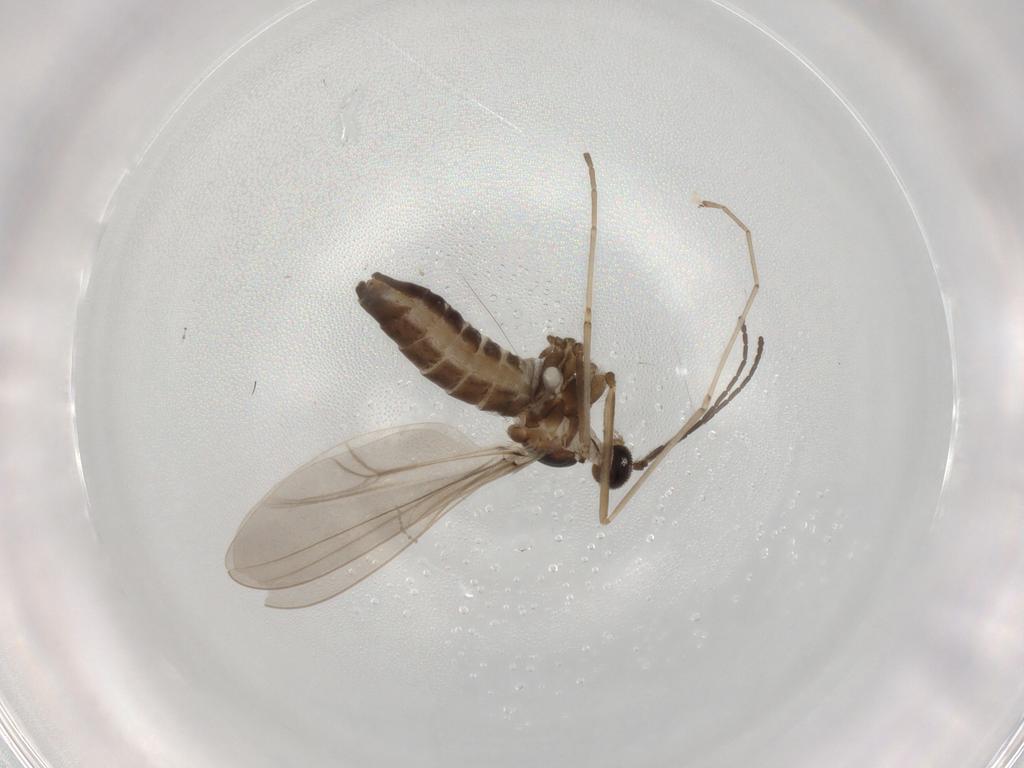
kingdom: Animalia
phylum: Arthropoda
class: Insecta
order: Diptera
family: Cecidomyiidae
